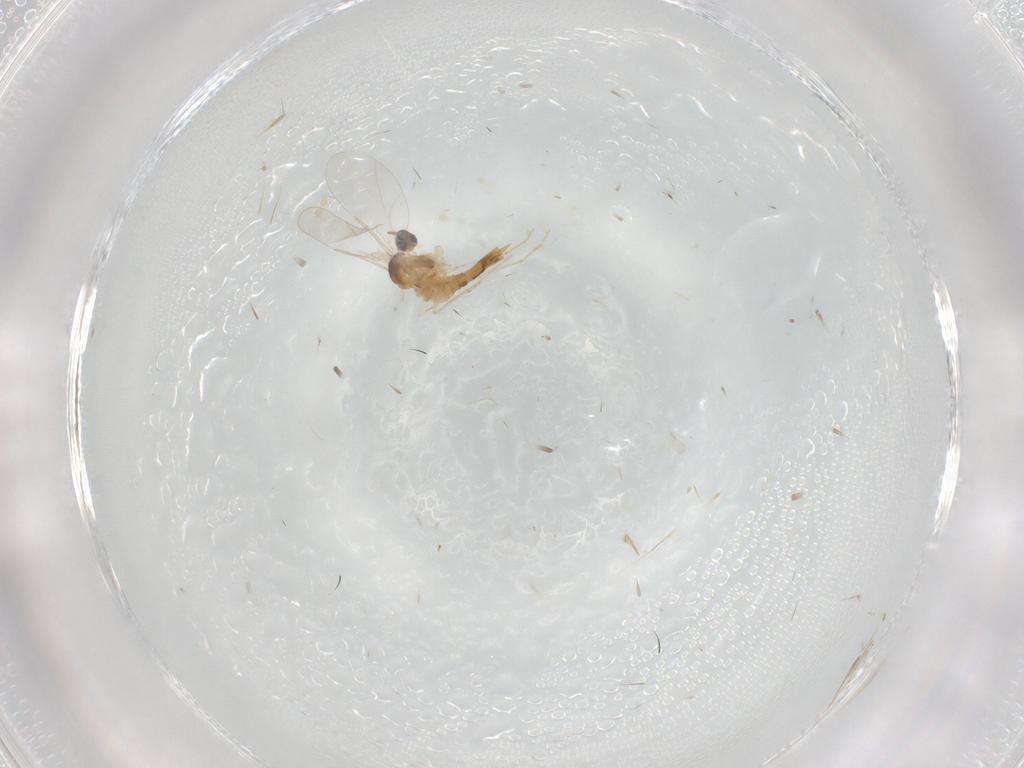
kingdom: Animalia
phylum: Arthropoda
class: Insecta
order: Diptera
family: Cecidomyiidae
